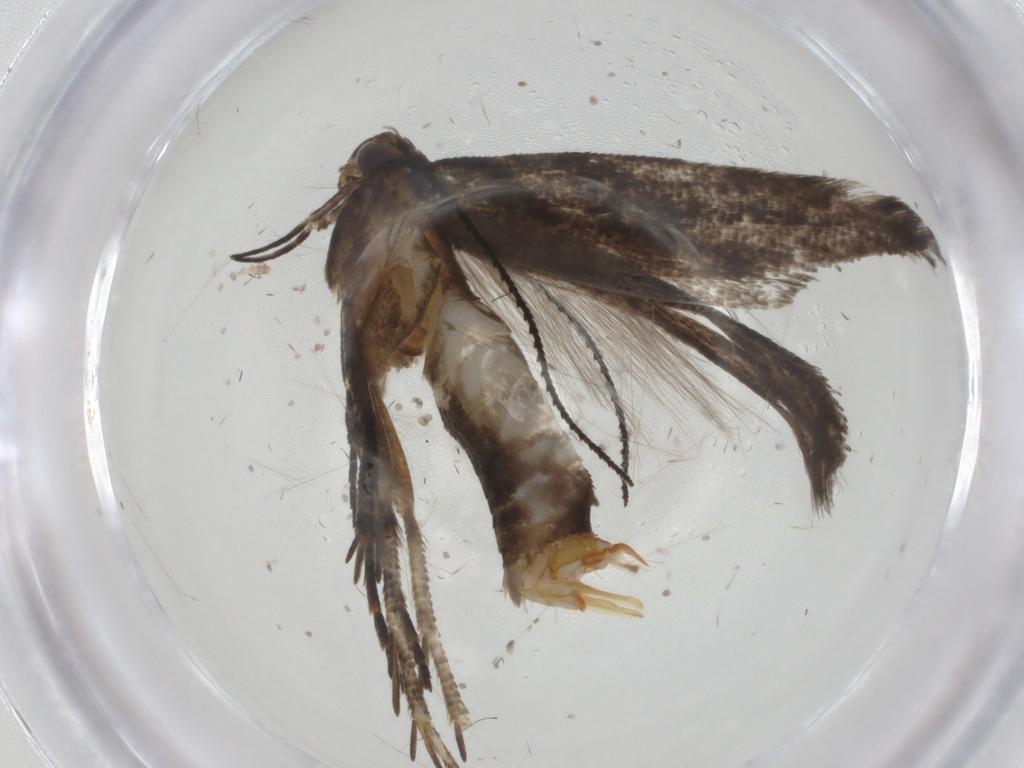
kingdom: Animalia
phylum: Arthropoda
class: Insecta
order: Lepidoptera
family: Gelechiidae
